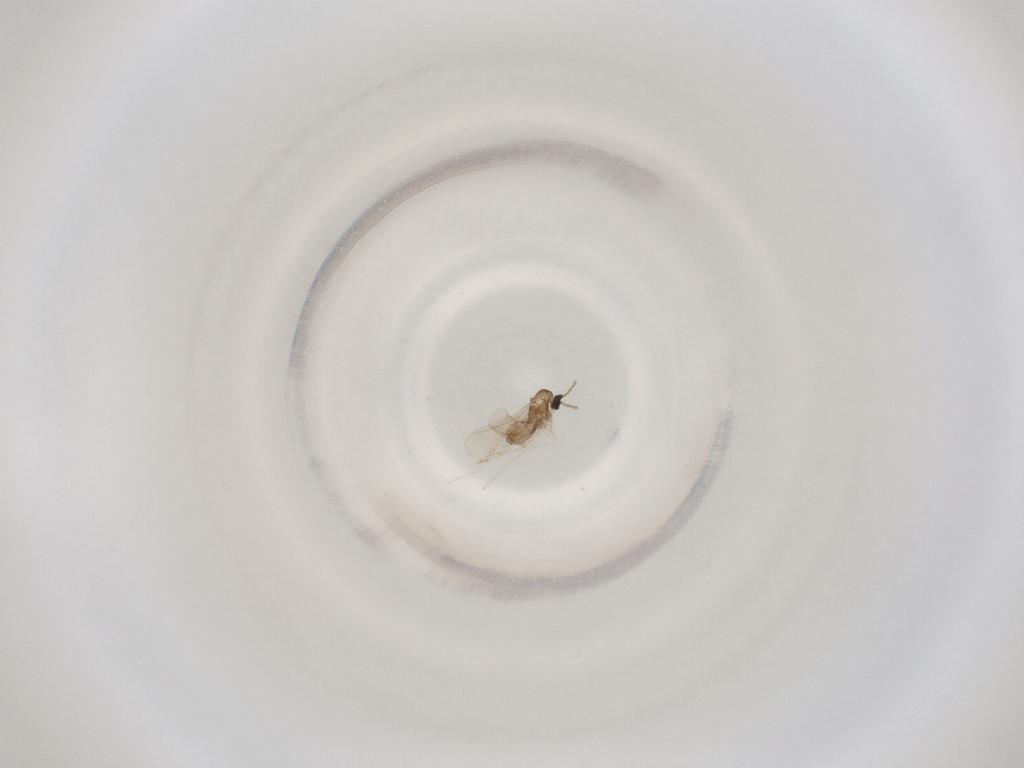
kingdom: Animalia
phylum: Arthropoda
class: Insecta
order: Diptera
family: Cecidomyiidae
